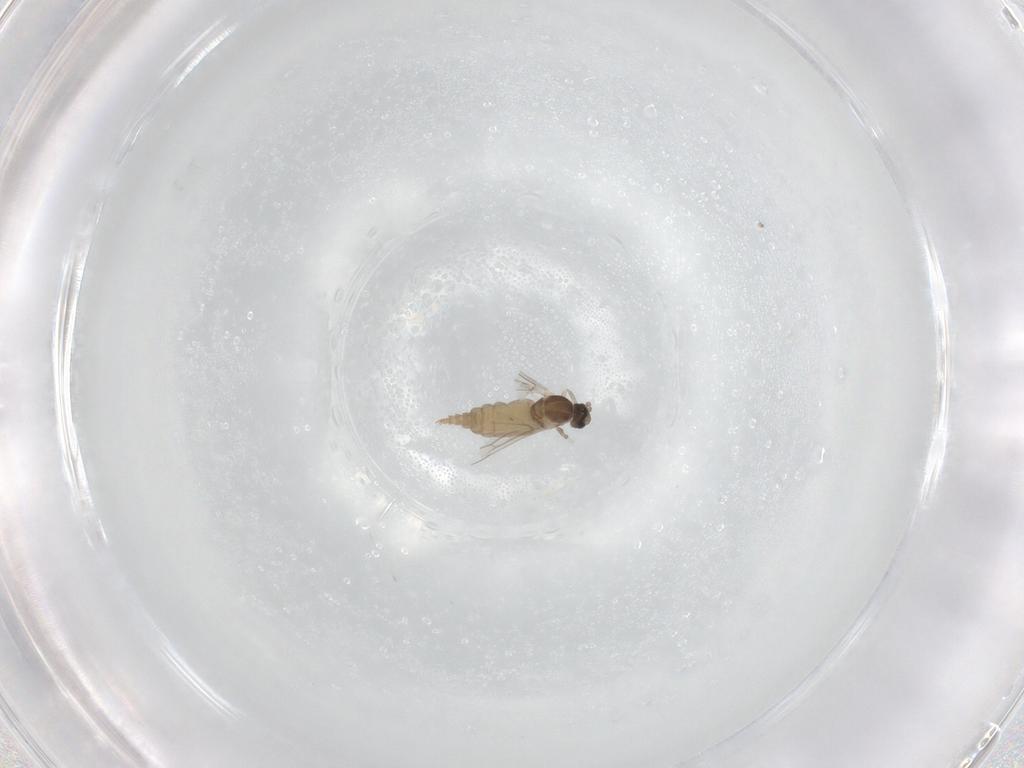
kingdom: Animalia
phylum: Arthropoda
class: Insecta
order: Diptera
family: Cecidomyiidae
